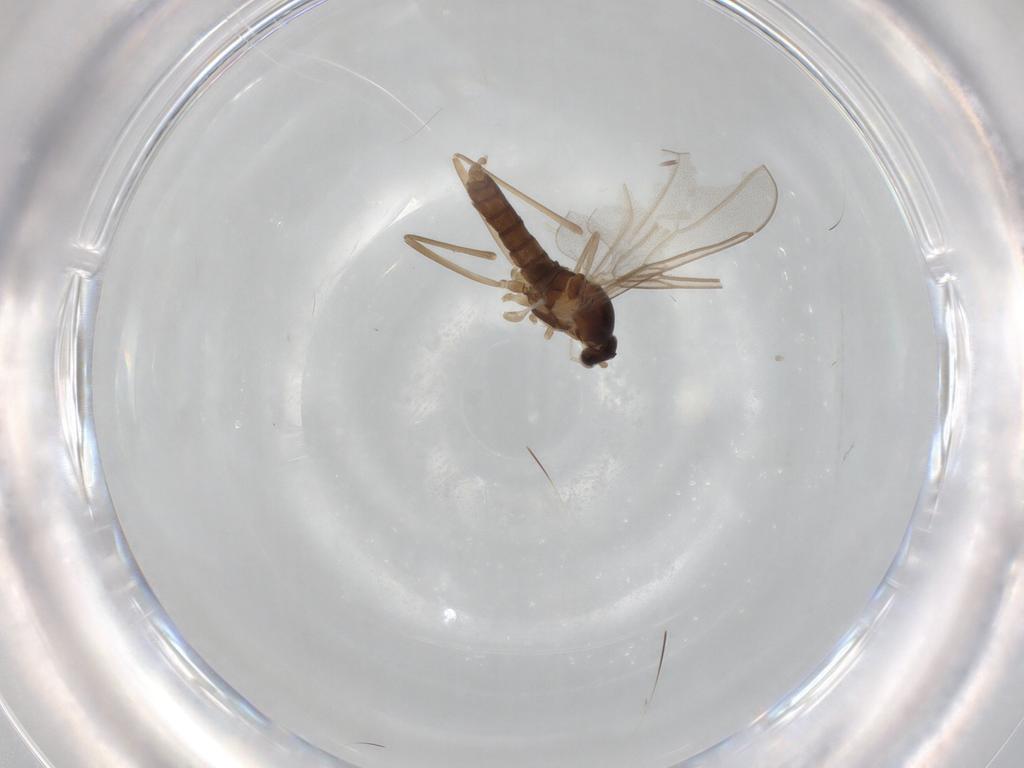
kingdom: Animalia
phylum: Arthropoda
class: Insecta
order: Diptera
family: Cecidomyiidae
